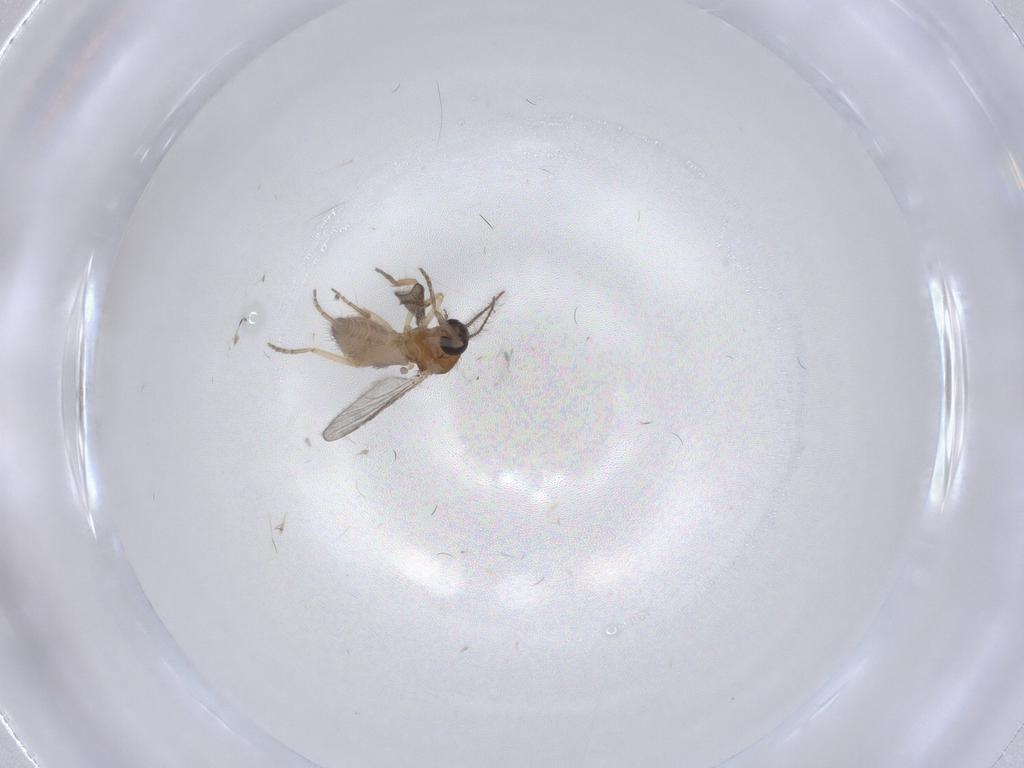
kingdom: Animalia
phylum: Arthropoda
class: Insecta
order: Diptera
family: Ceratopogonidae
